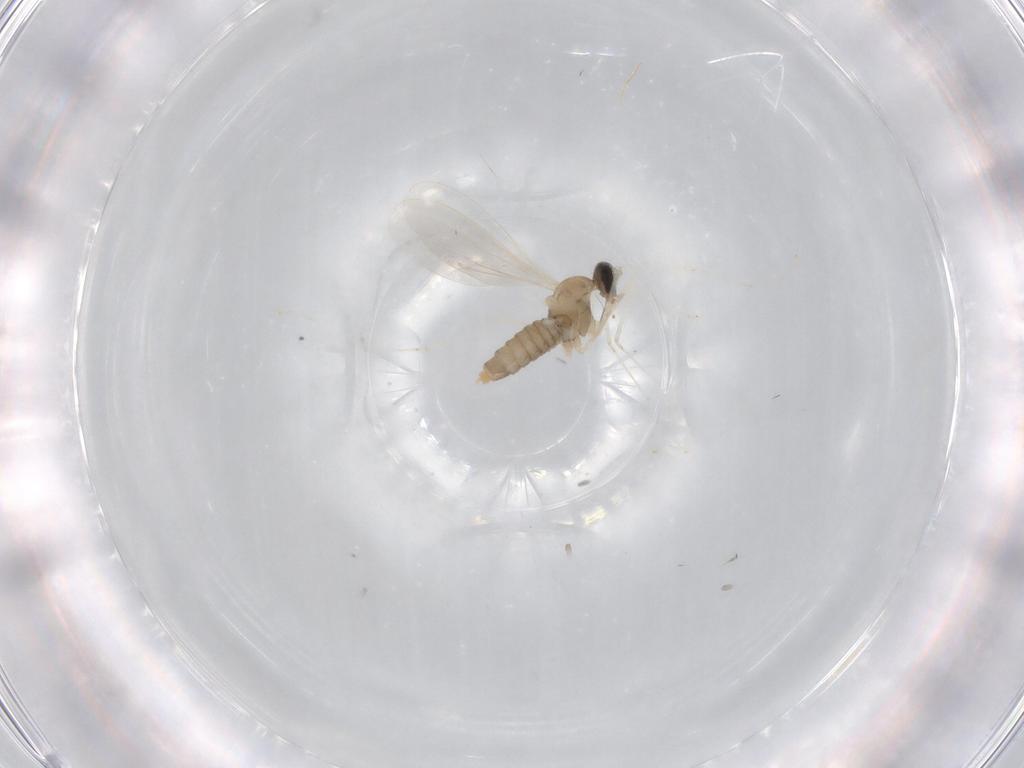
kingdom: Animalia
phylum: Arthropoda
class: Insecta
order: Diptera
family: Cecidomyiidae
